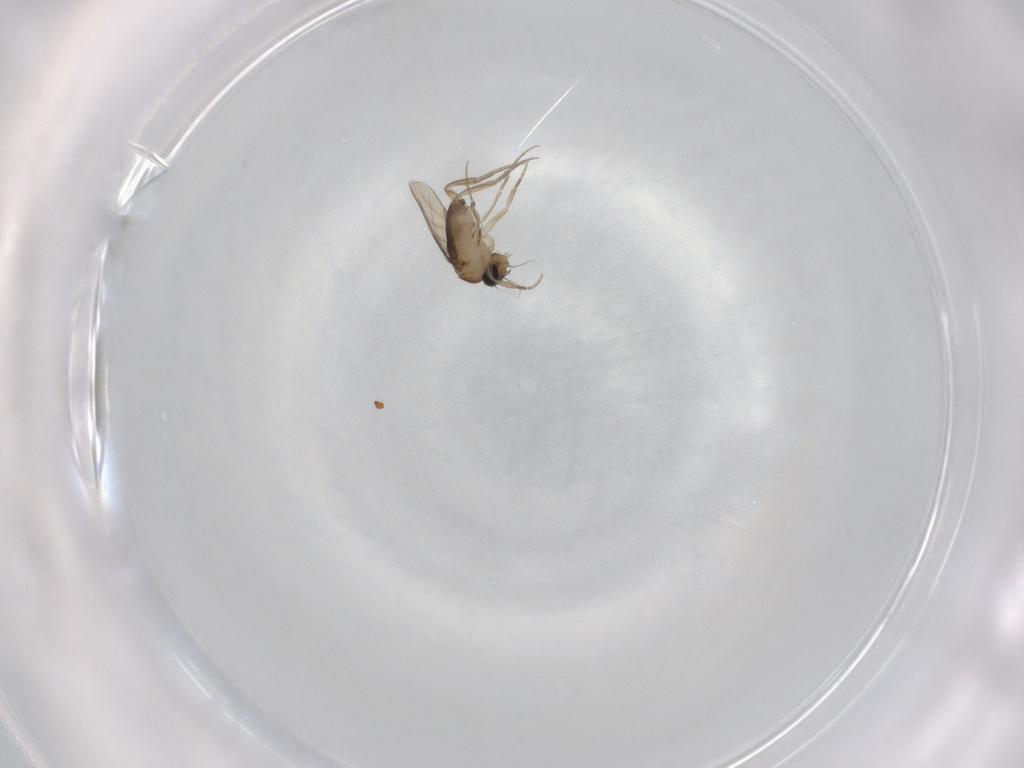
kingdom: Animalia
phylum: Arthropoda
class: Insecta
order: Diptera
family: Cecidomyiidae
